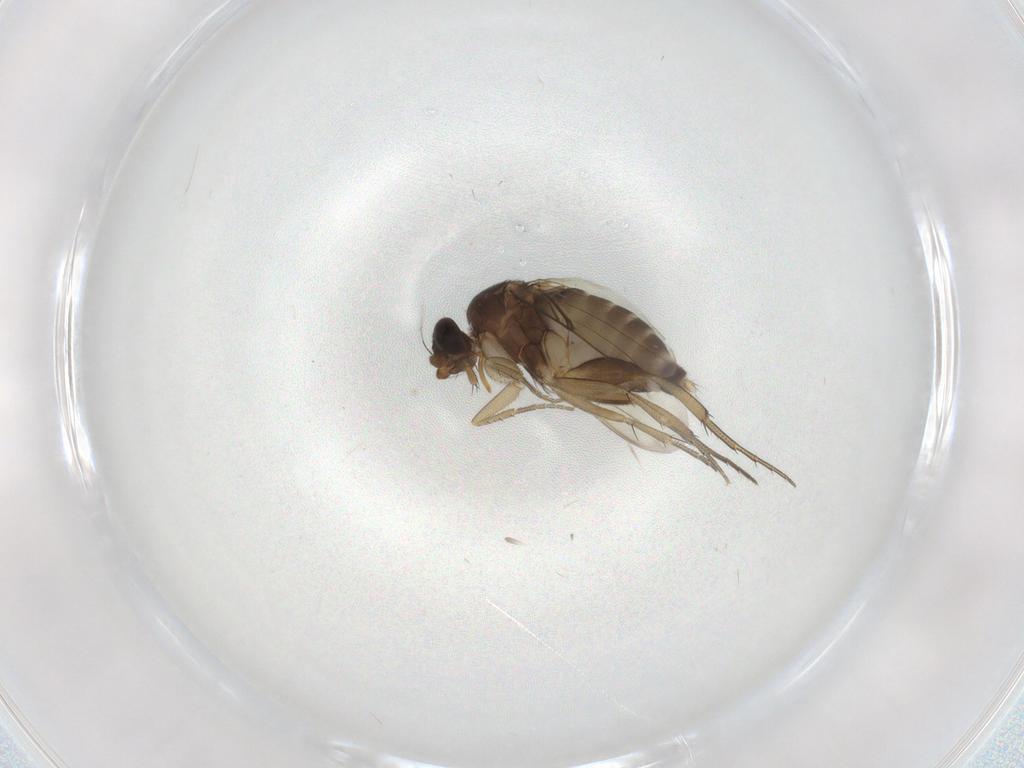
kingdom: Animalia
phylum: Arthropoda
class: Insecta
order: Diptera
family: Phoridae
